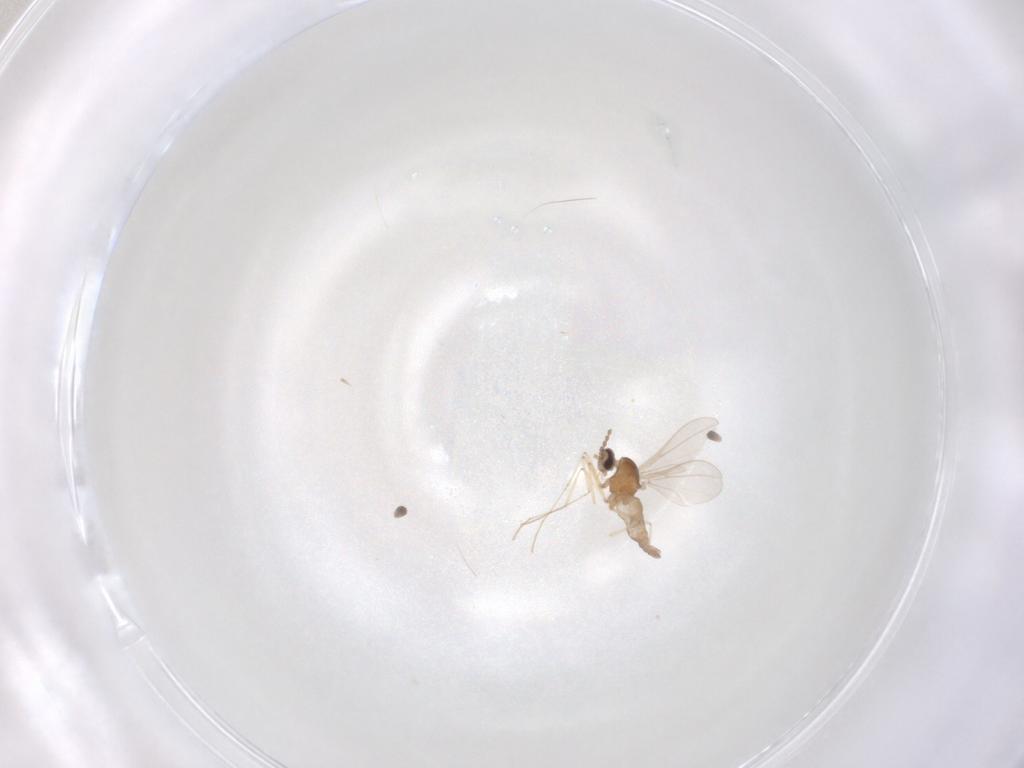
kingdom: Animalia
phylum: Arthropoda
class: Insecta
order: Diptera
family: Cecidomyiidae
